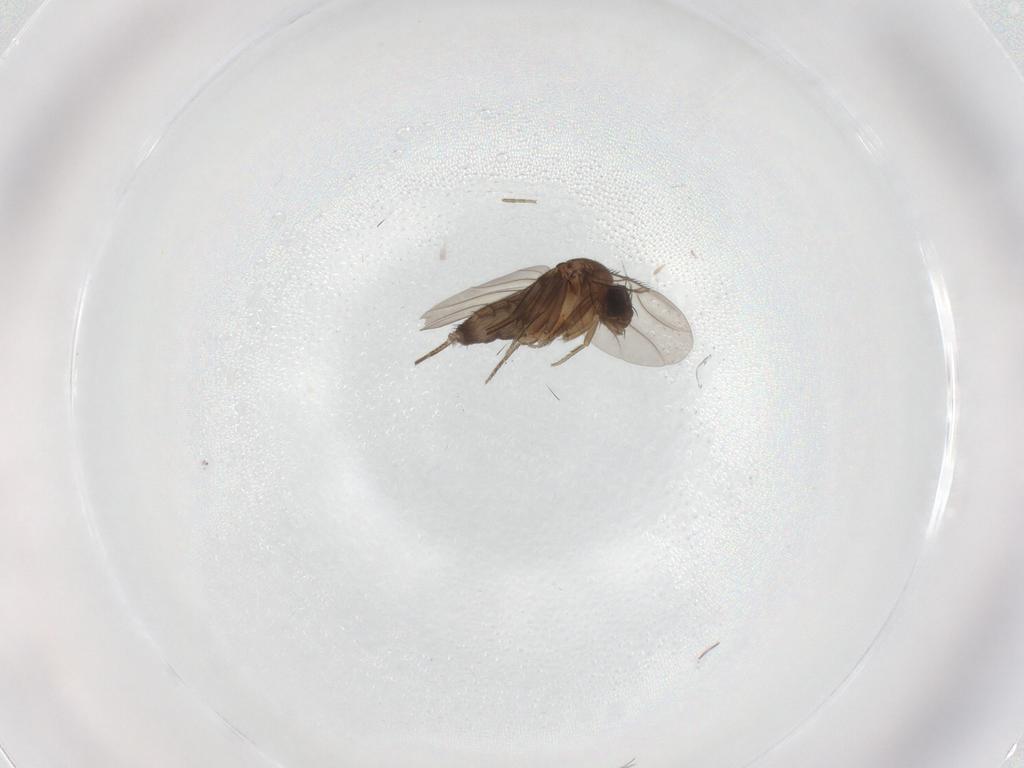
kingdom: Animalia
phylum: Arthropoda
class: Insecta
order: Diptera
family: Phoridae
